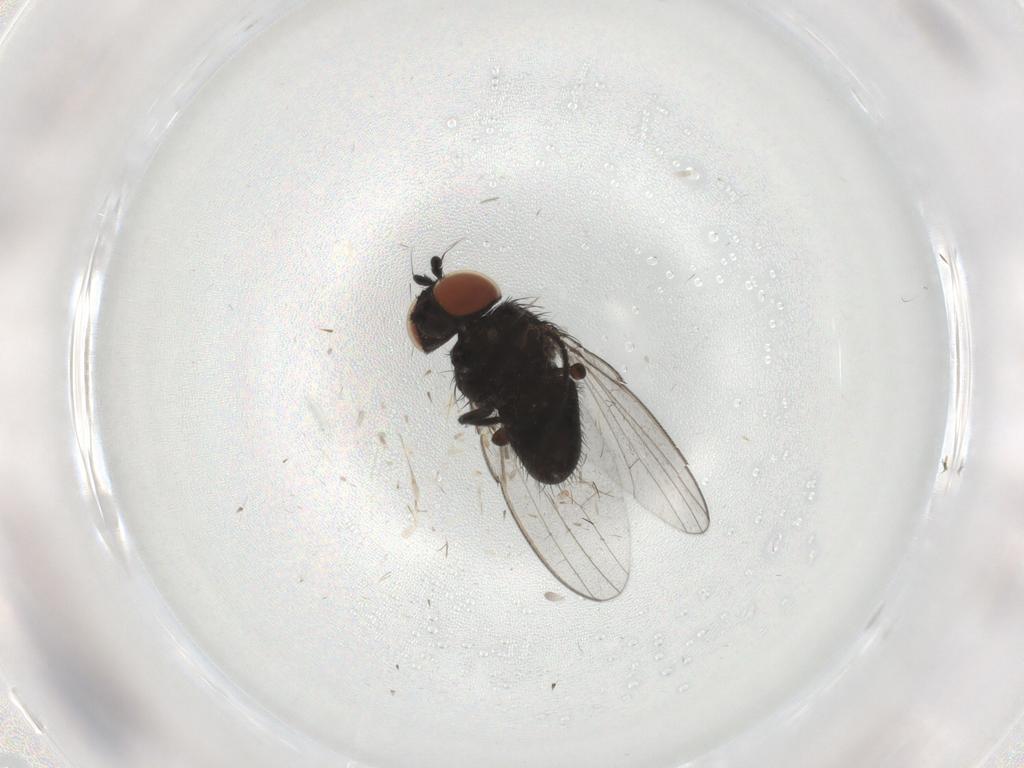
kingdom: Animalia
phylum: Arthropoda
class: Insecta
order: Diptera
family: Milichiidae
